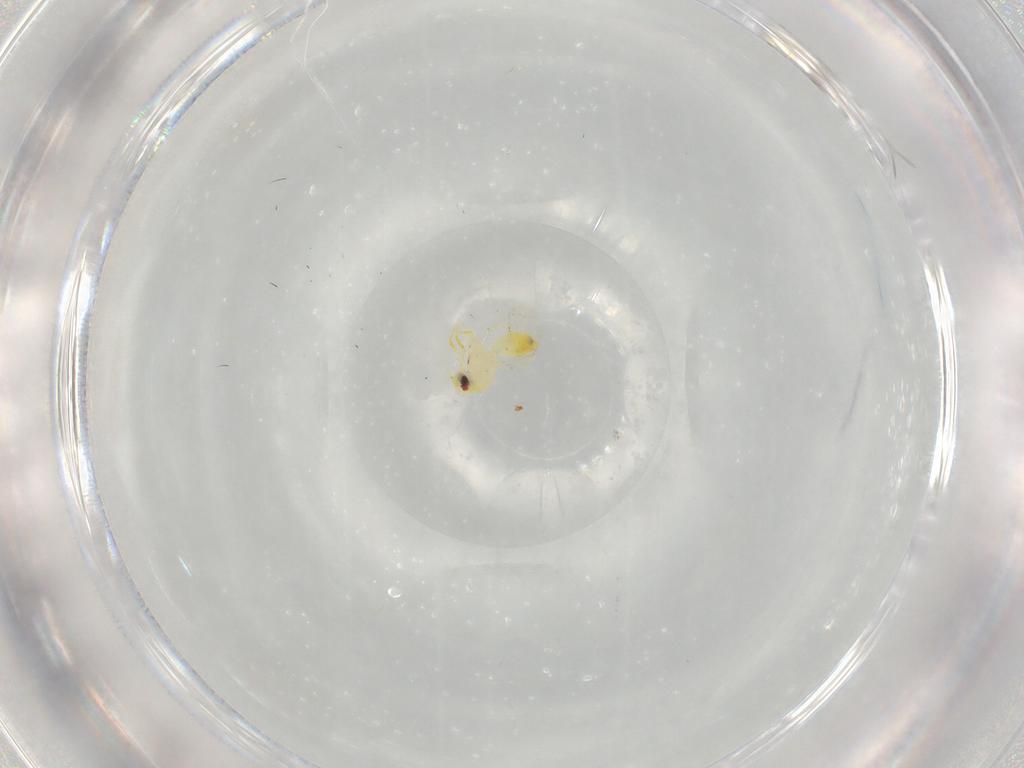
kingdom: Animalia
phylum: Arthropoda
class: Insecta
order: Hemiptera
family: Aleyrodidae
